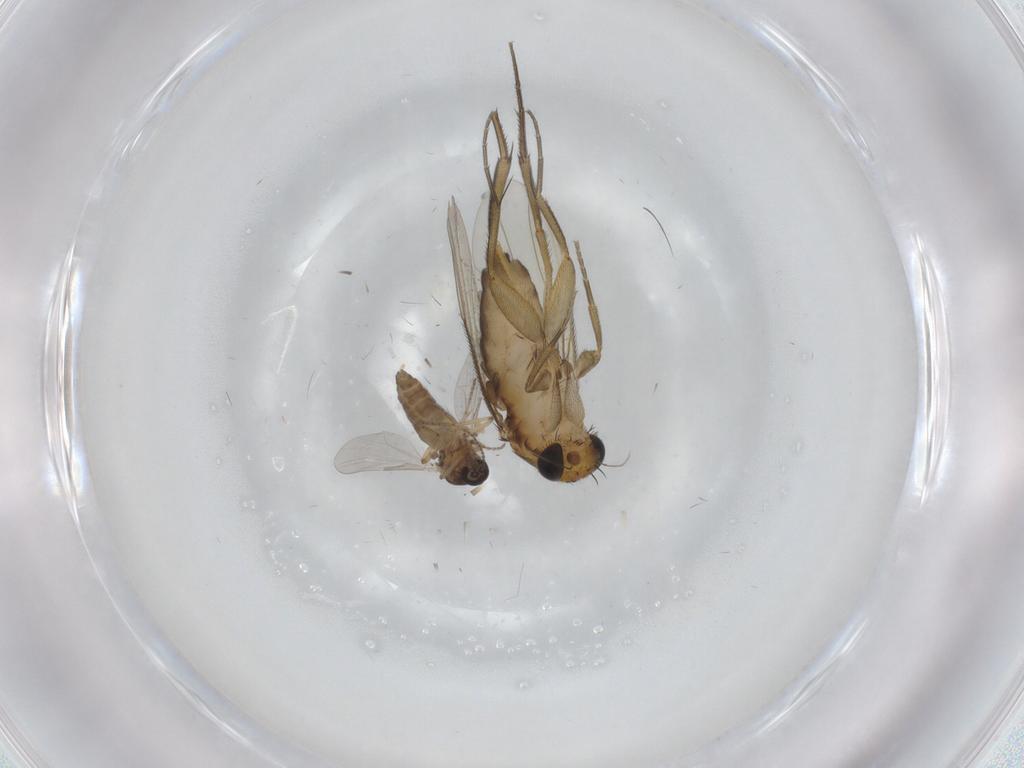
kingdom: Animalia
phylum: Arthropoda
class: Insecta
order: Diptera
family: Phoridae
